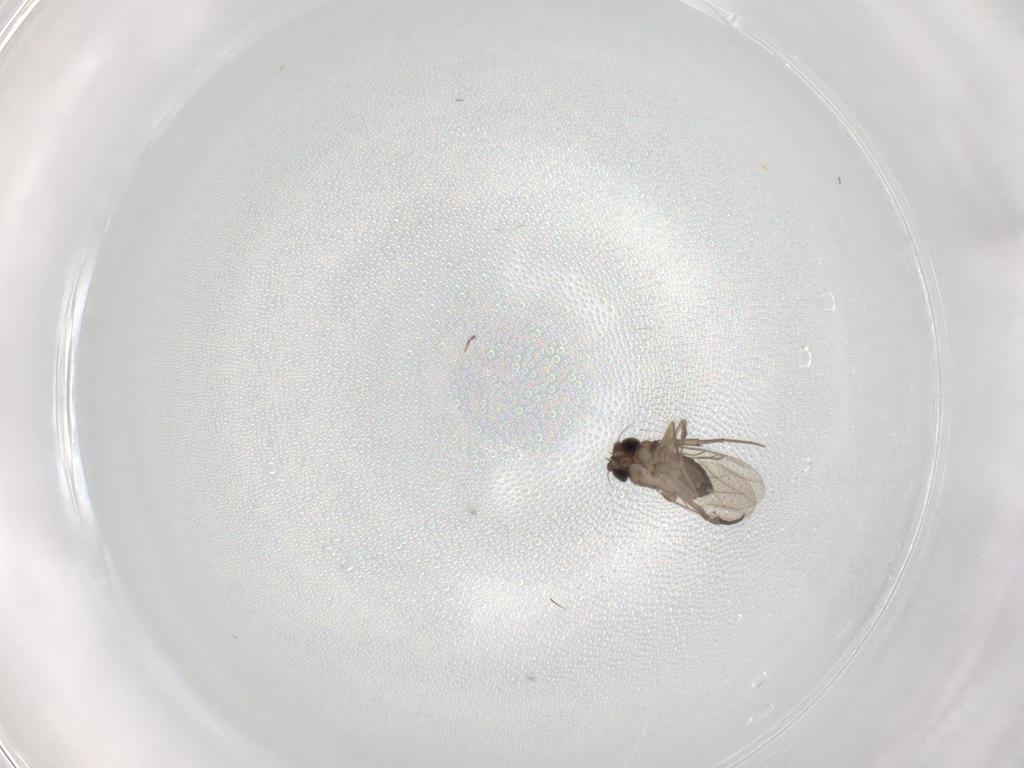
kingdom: Animalia
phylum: Arthropoda
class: Insecta
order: Diptera
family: Phoridae
